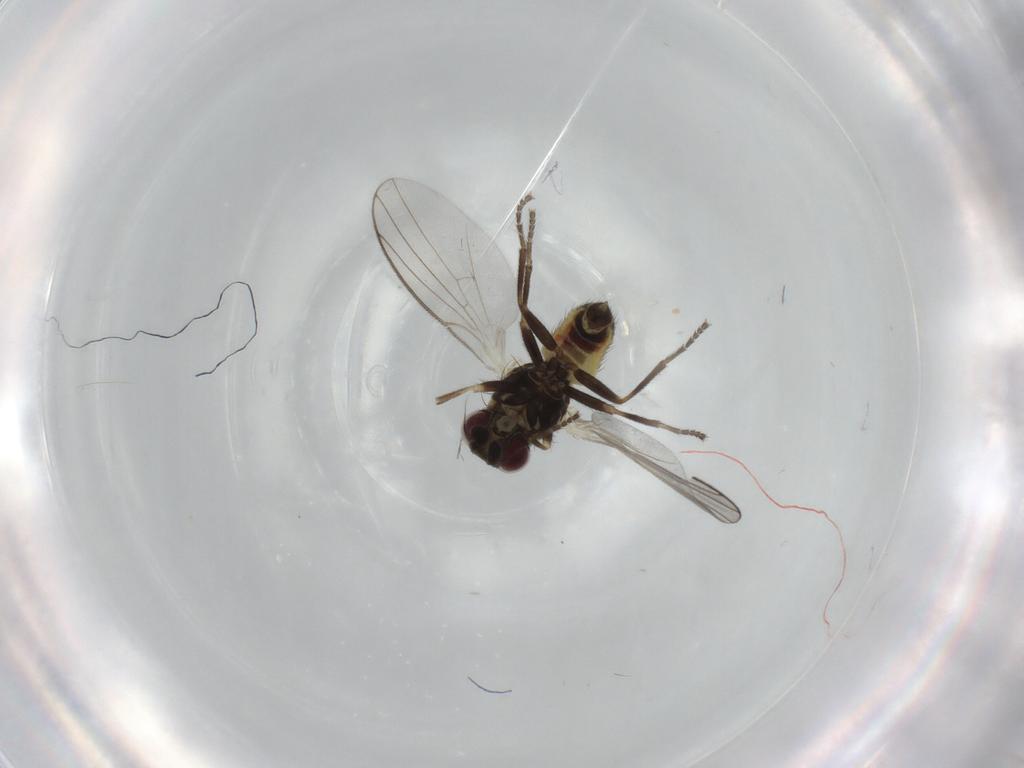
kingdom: Animalia
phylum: Arthropoda
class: Insecta
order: Diptera
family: Agromyzidae
